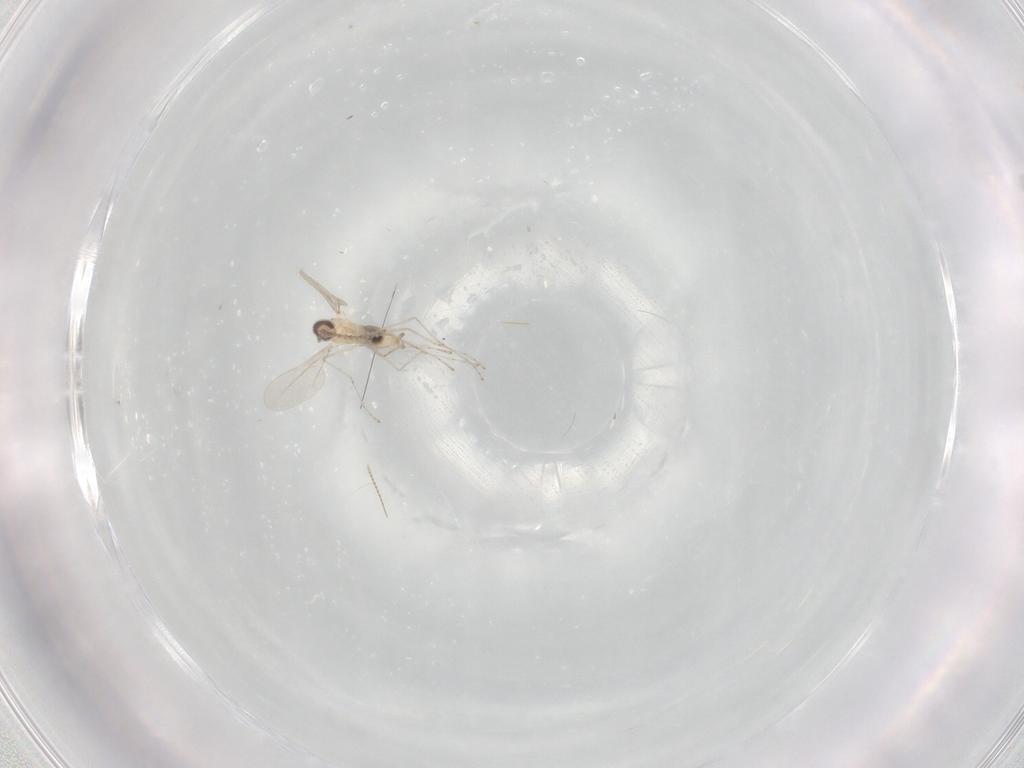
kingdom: Animalia
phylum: Arthropoda
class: Insecta
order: Diptera
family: Cecidomyiidae
